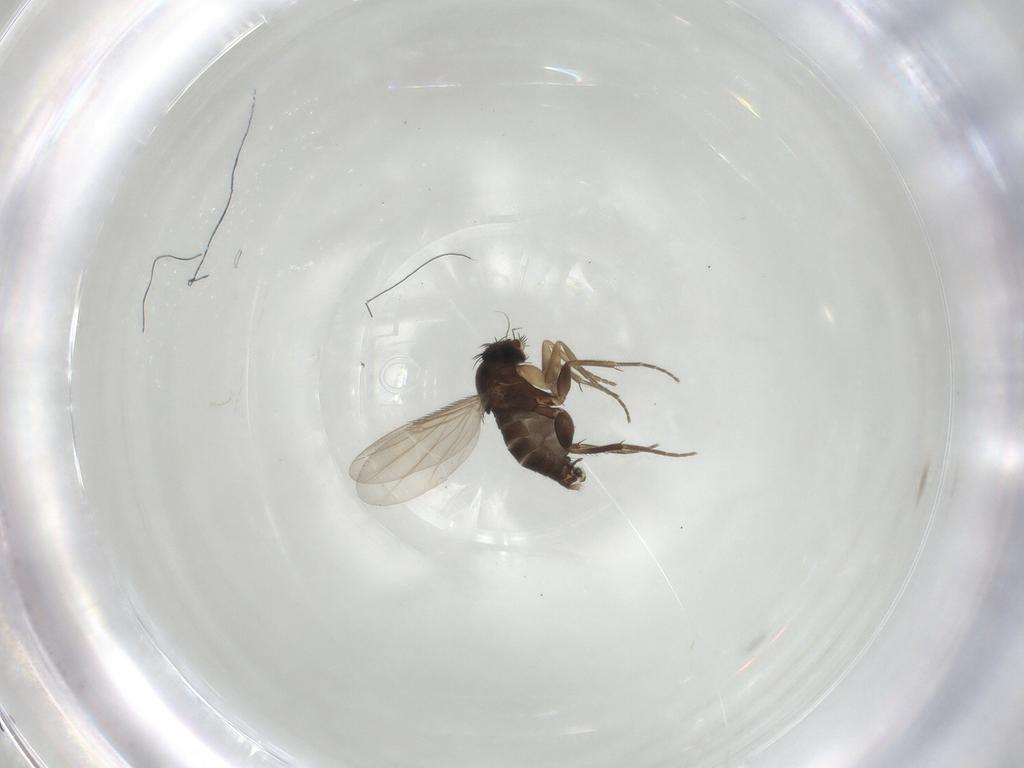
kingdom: Animalia
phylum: Arthropoda
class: Insecta
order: Diptera
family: Phoridae
